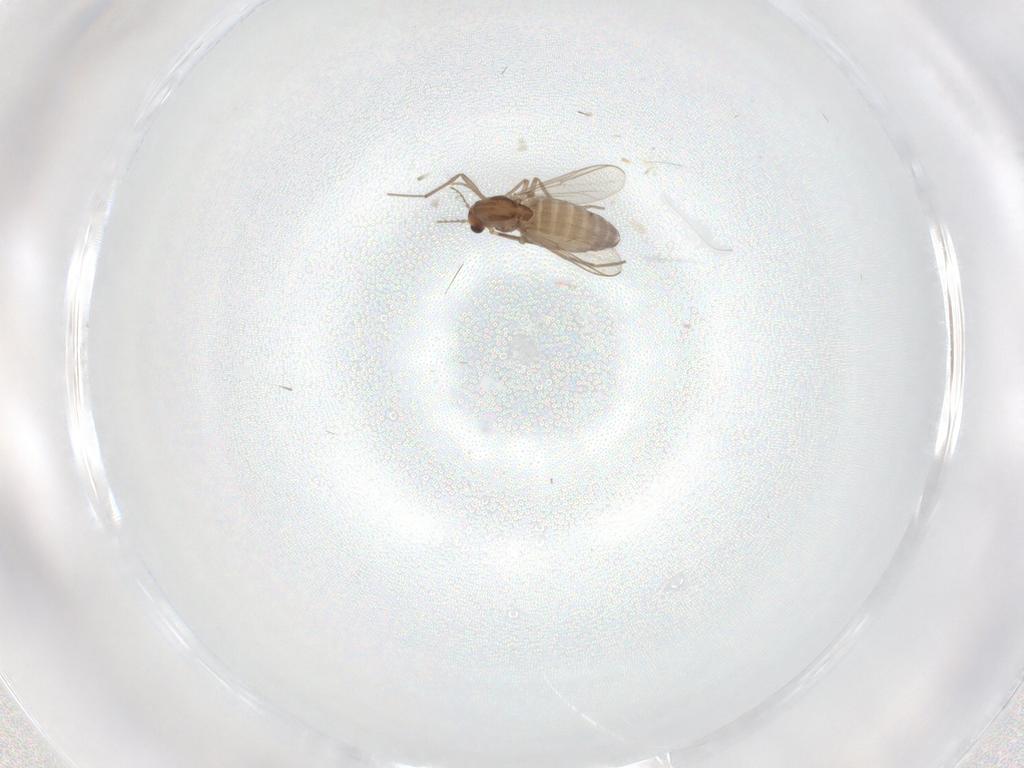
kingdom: Animalia
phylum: Arthropoda
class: Insecta
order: Diptera
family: Chironomidae
